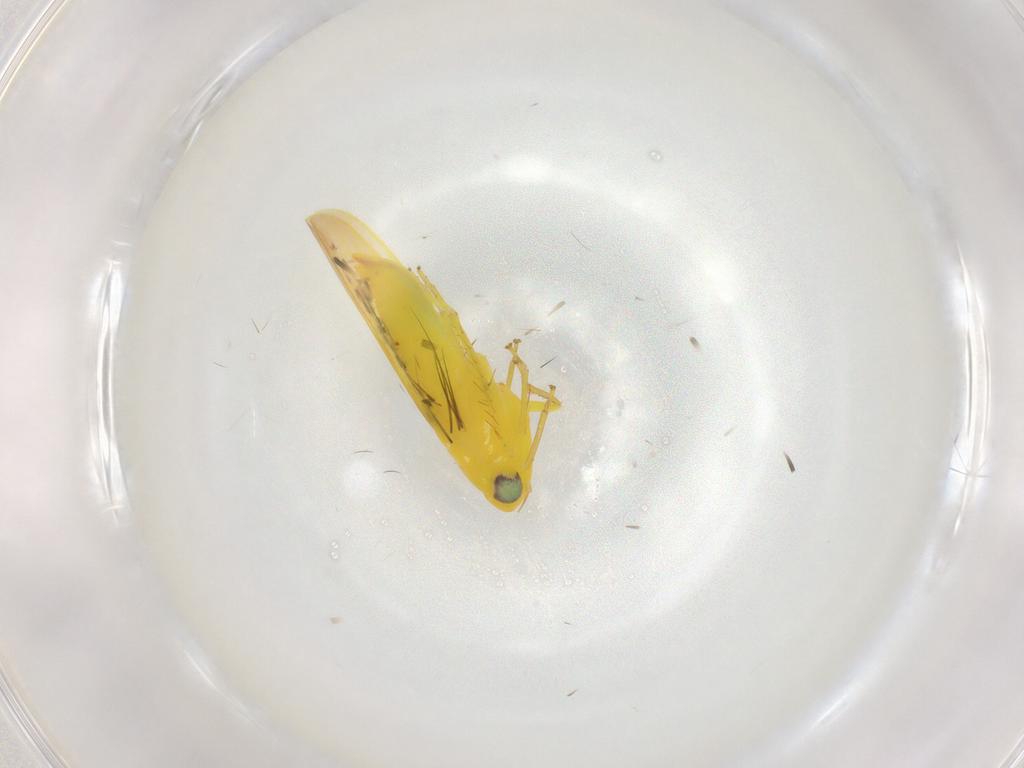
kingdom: Animalia
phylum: Arthropoda
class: Insecta
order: Hemiptera
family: Cicadellidae
